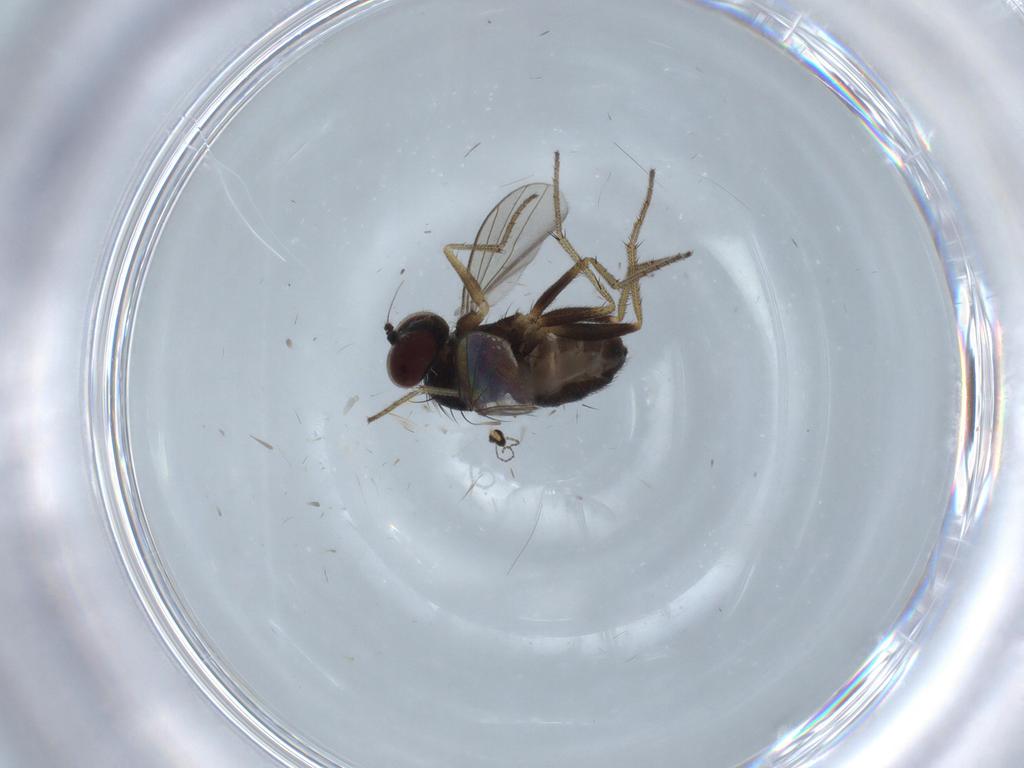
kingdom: Animalia
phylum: Arthropoda
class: Insecta
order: Diptera
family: Cecidomyiidae
